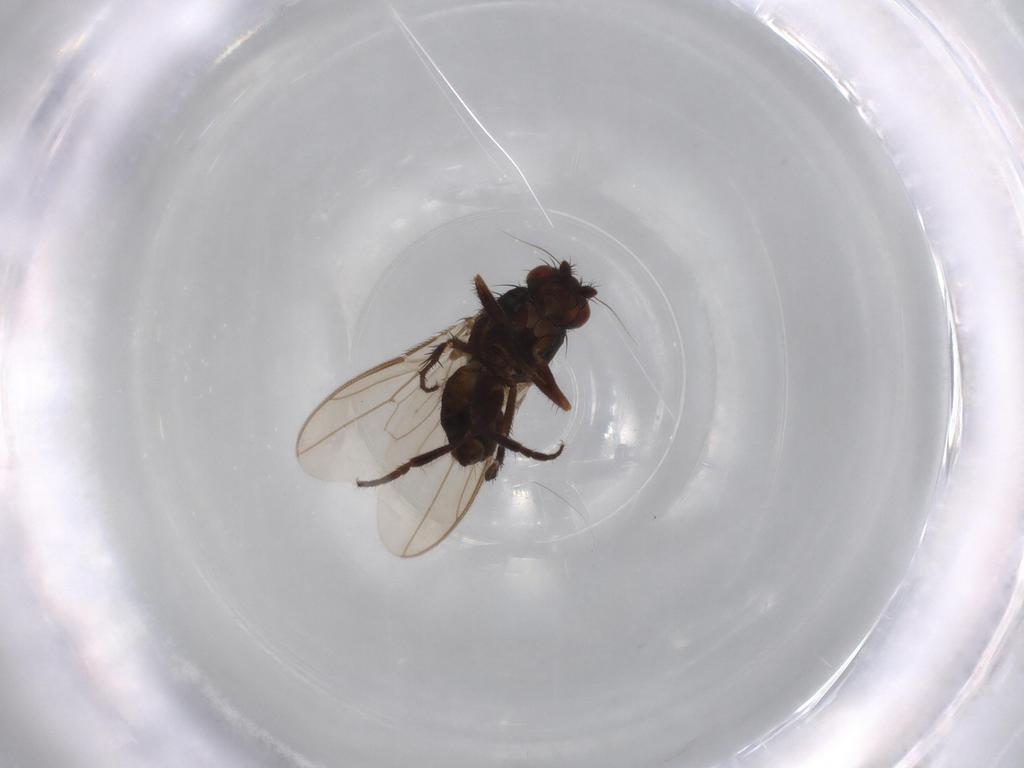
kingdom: Animalia
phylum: Arthropoda
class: Insecta
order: Diptera
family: Sphaeroceridae
